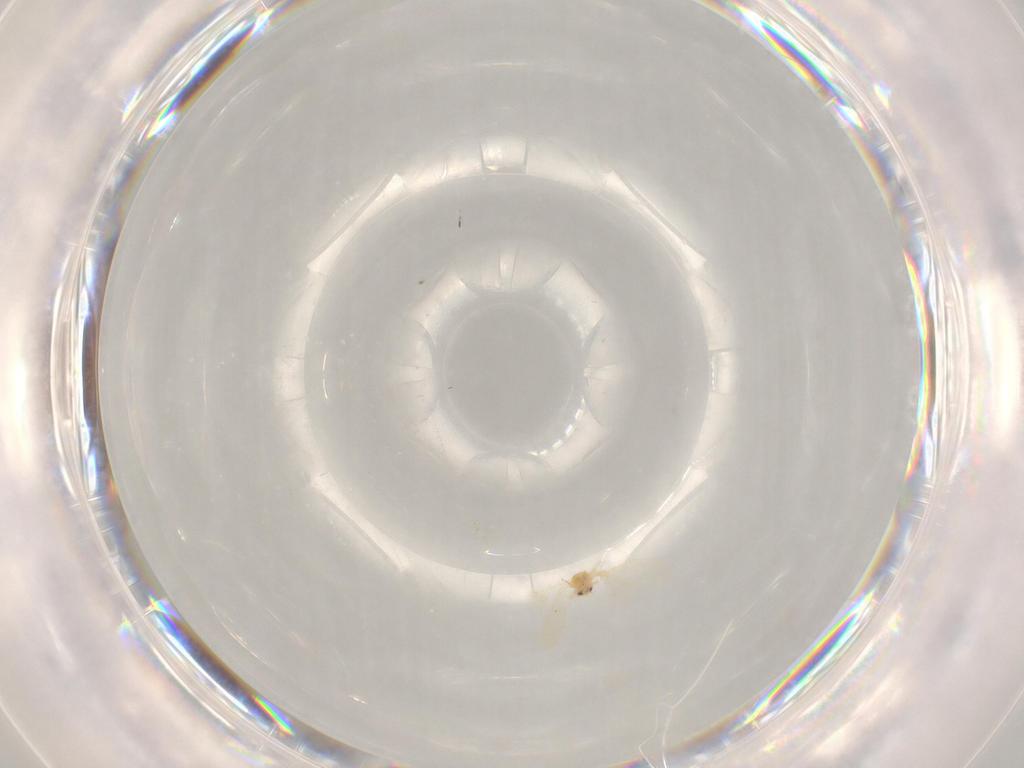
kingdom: Animalia
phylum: Arthropoda
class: Insecta
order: Hemiptera
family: Aleyrodidae
